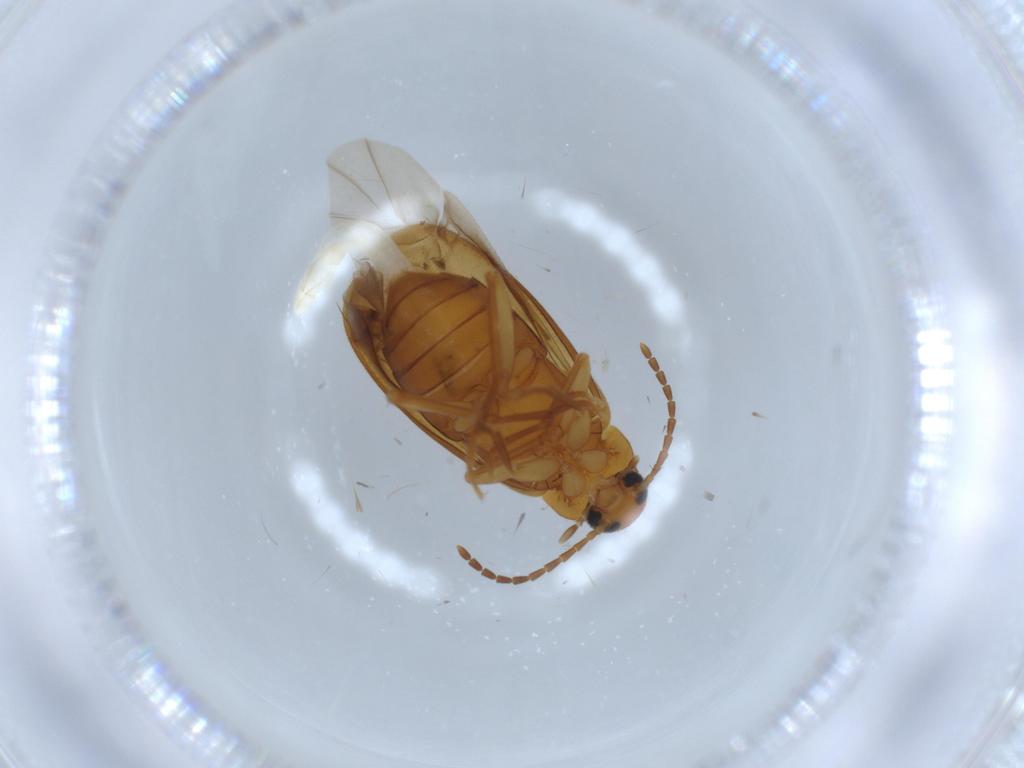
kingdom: Animalia
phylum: Arthropoda
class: Insecta
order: Coleoptera
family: Scraptiidae
